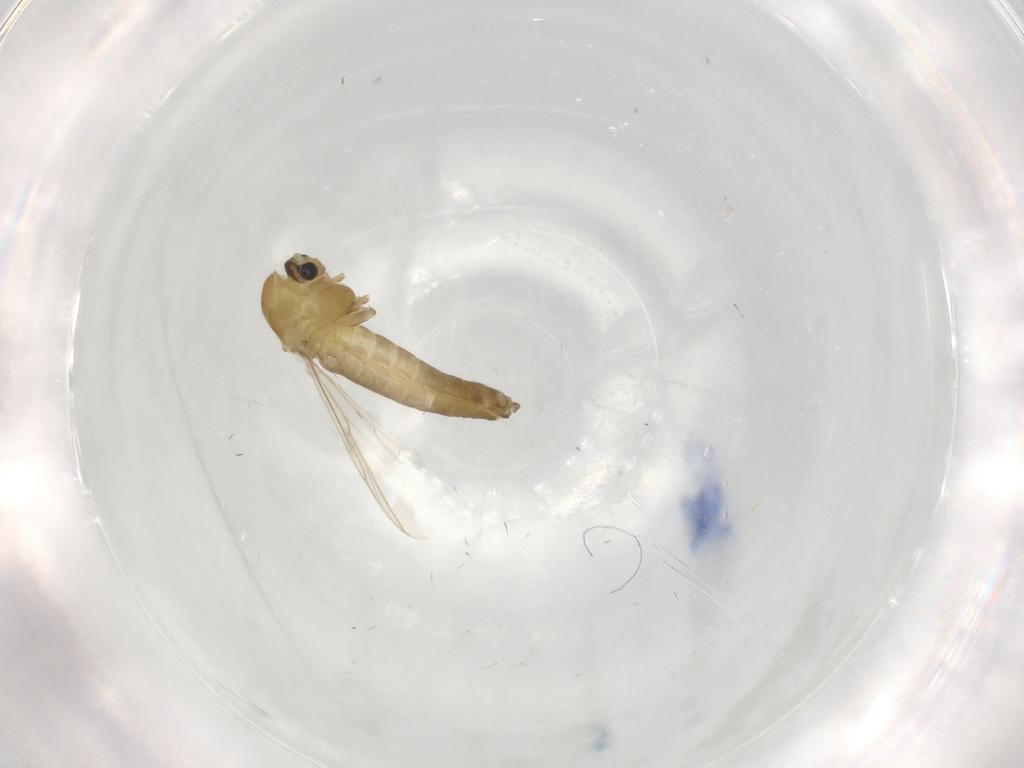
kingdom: Animalia
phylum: Arthropoda
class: Insecta
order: Diptera
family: Chironomidae
